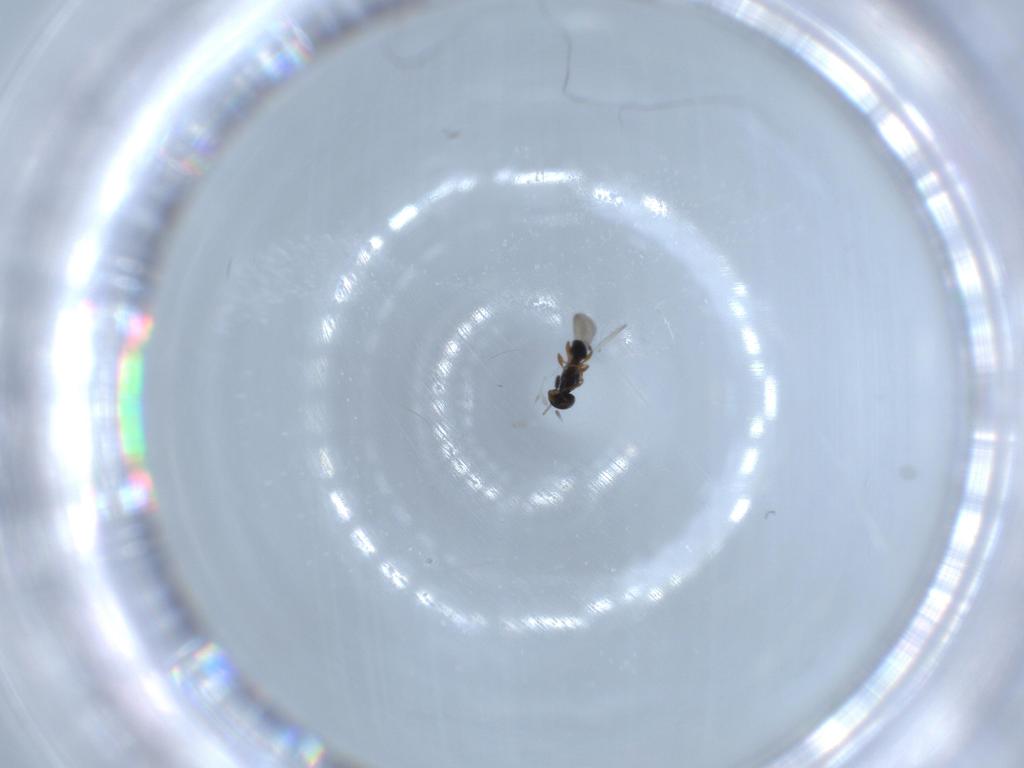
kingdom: Animalia
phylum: Arthropoda
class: Insecta
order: Hymenoptera
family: Platygastridae
